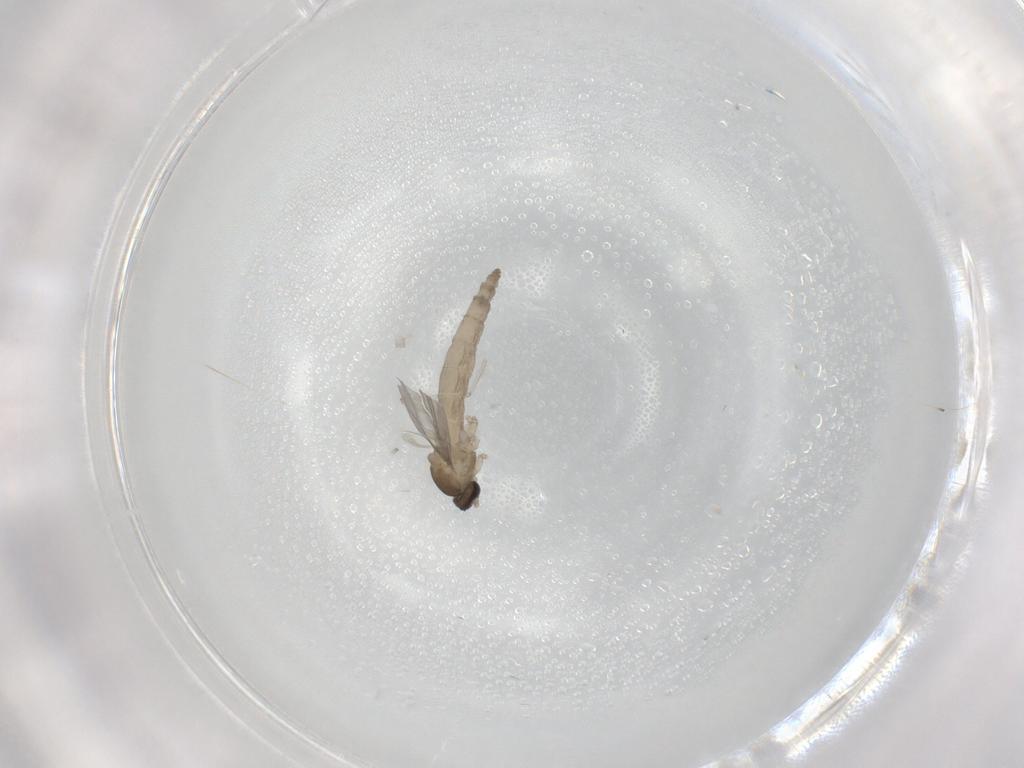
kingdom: Animalia
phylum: Arthropoda
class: Insecta
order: Diptera
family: Cecidomyiidae
